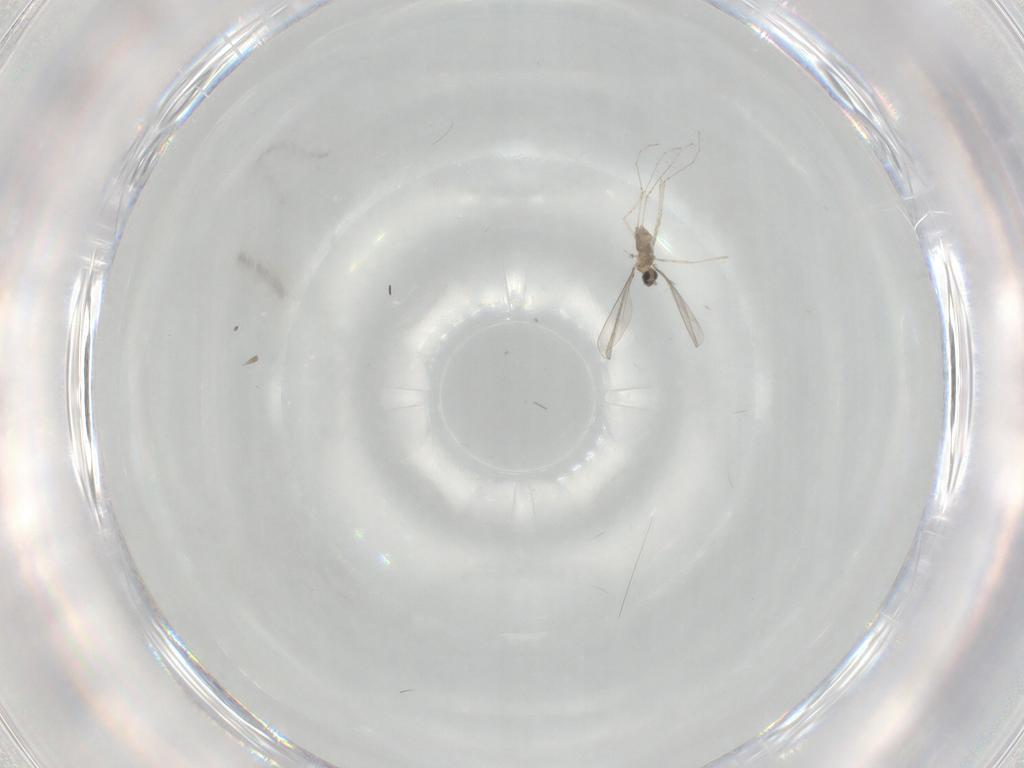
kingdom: Animalia
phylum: Arthropoda
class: Insecta
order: Diptera
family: Cecidomyiidae
